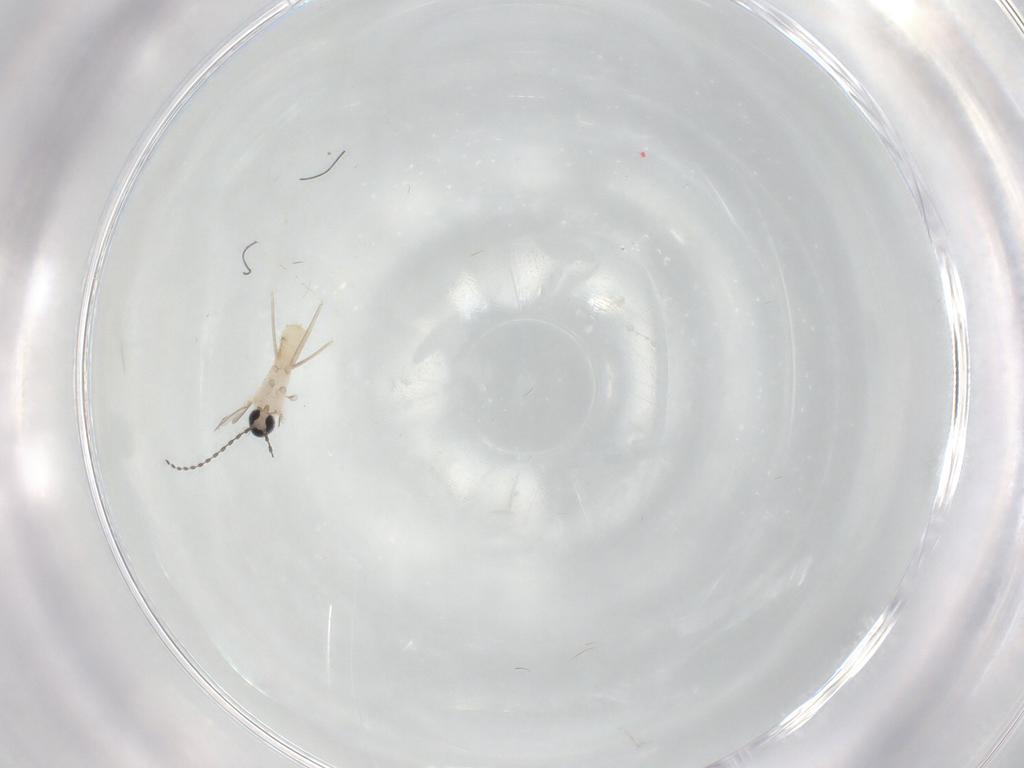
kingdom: Animalia
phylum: Arthropoda
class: Insecta
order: Diptera
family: Cecidomyiidae
